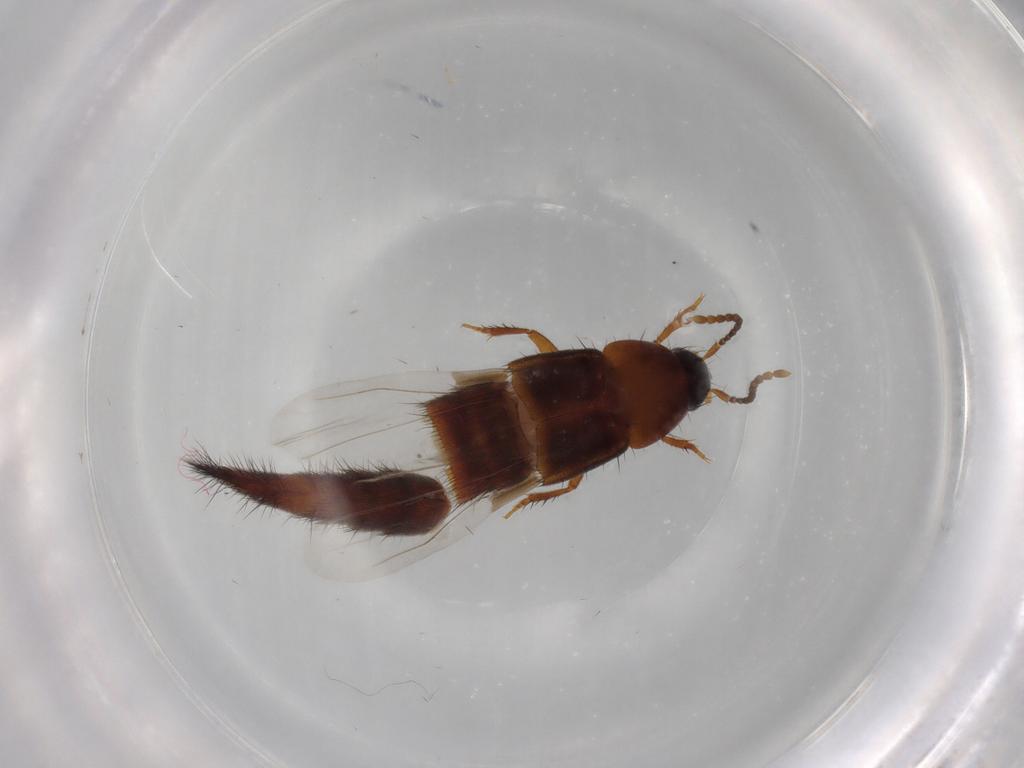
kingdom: Animalia
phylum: Arthropoda
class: Insecta
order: Coleoptera
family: Staphylinidae
